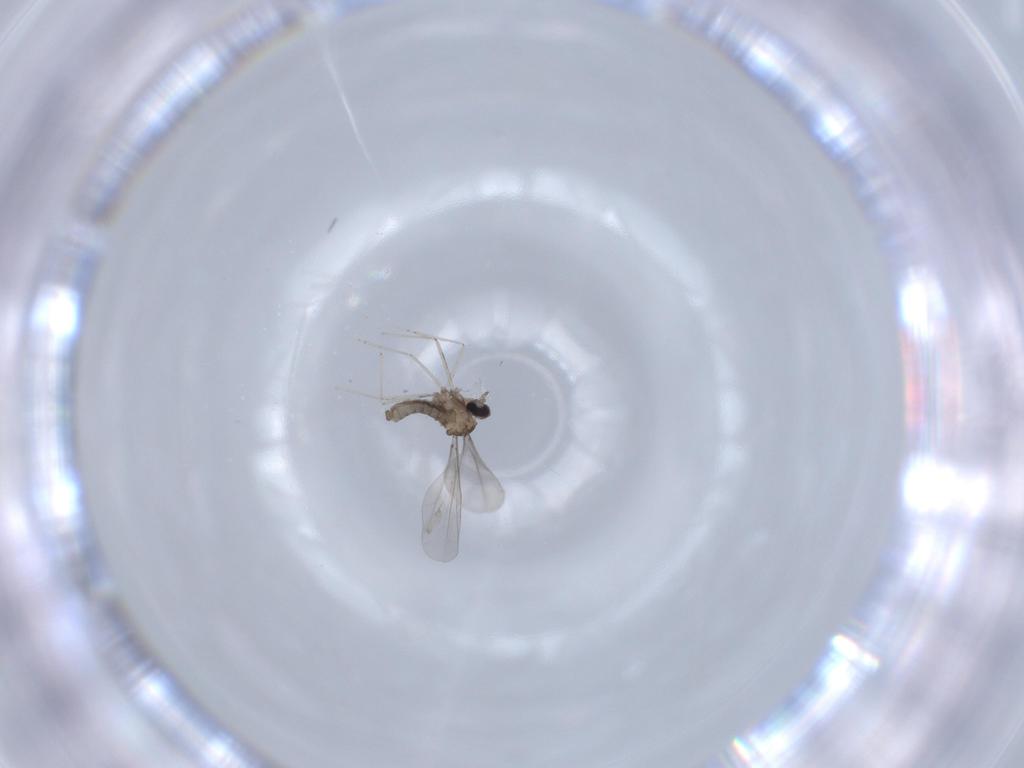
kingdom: Animalia
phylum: Arthropoda
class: Insecta
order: Diptera
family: Cecidomyiidae
